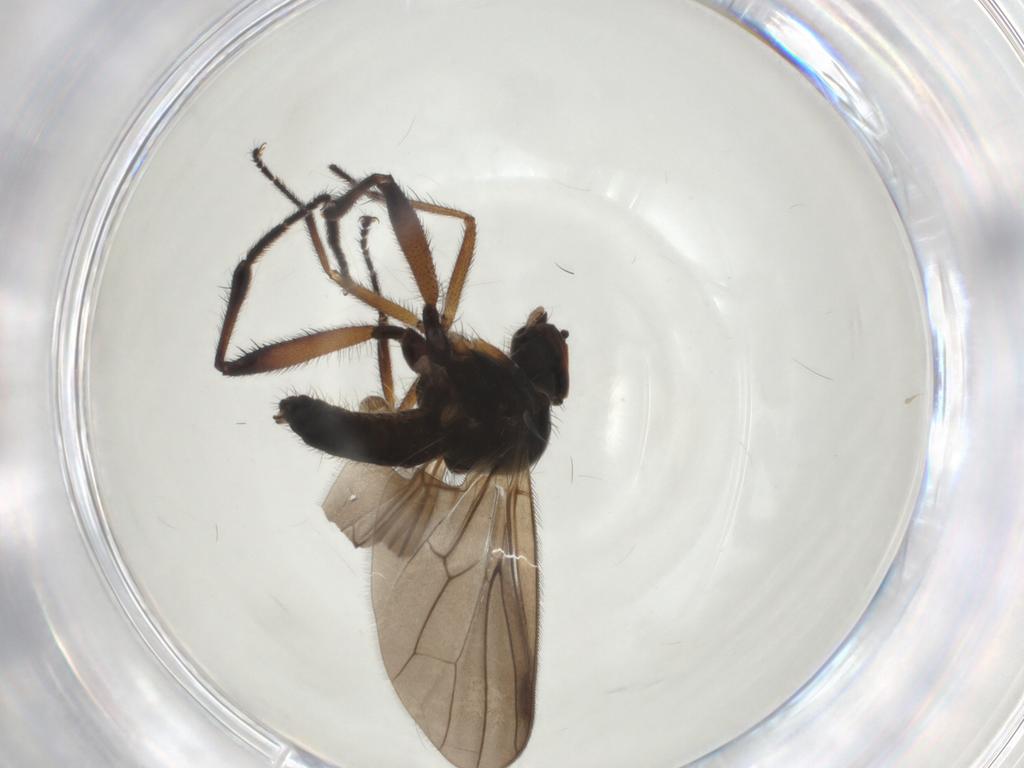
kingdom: Animalia
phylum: Arthropoda
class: Insecta
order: Diptera
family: Hybotidae
